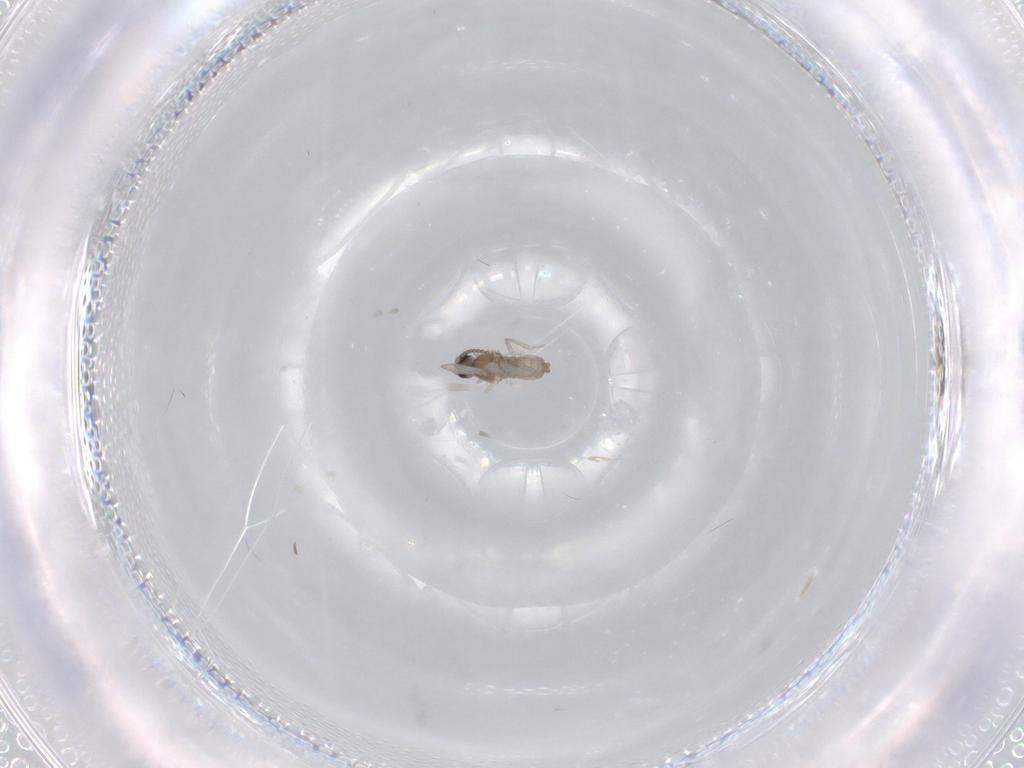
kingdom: Animalia
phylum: Arthropoda
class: Insecta
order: Diptera
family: Cecidomyiidae
